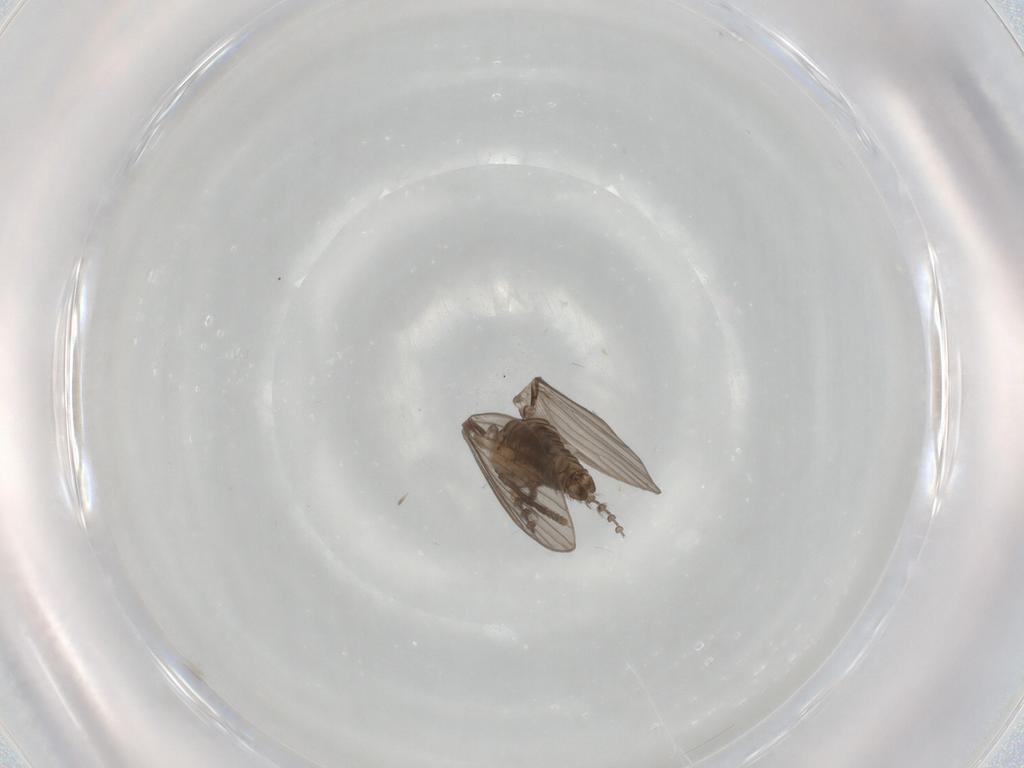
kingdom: Animalia
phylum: Arthropoda
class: Insecta
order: Diptera
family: Ceratopogonidae
